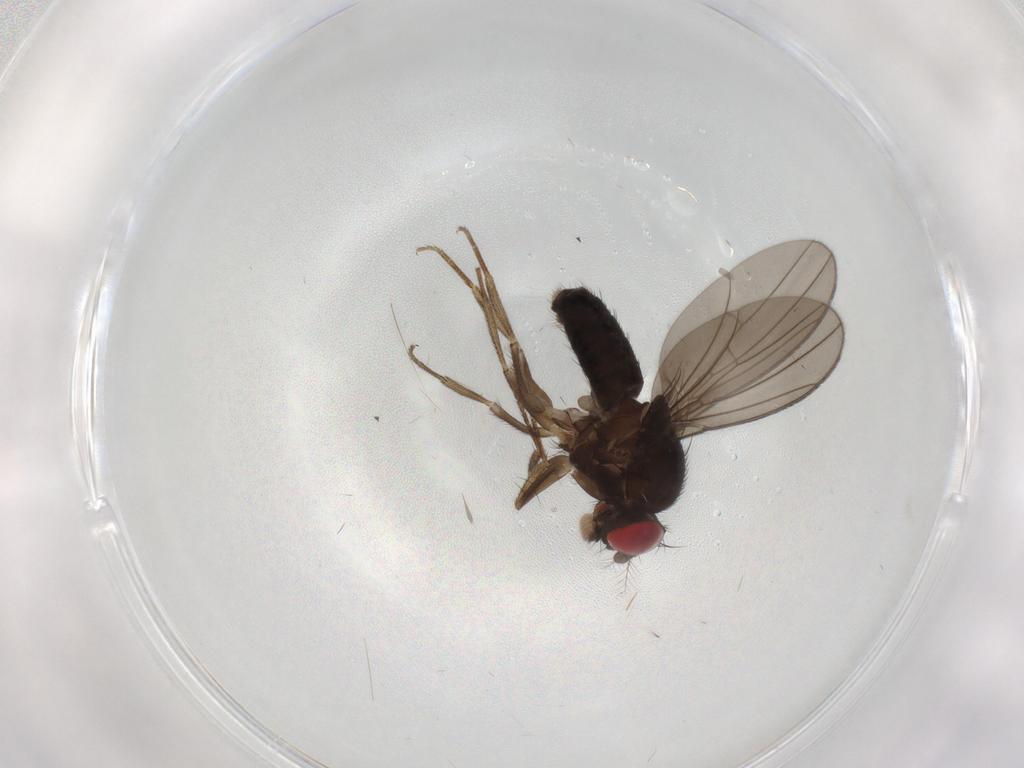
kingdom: Animalia
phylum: Arthropoda
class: Insecta
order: Diptera
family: Drosophilidae
